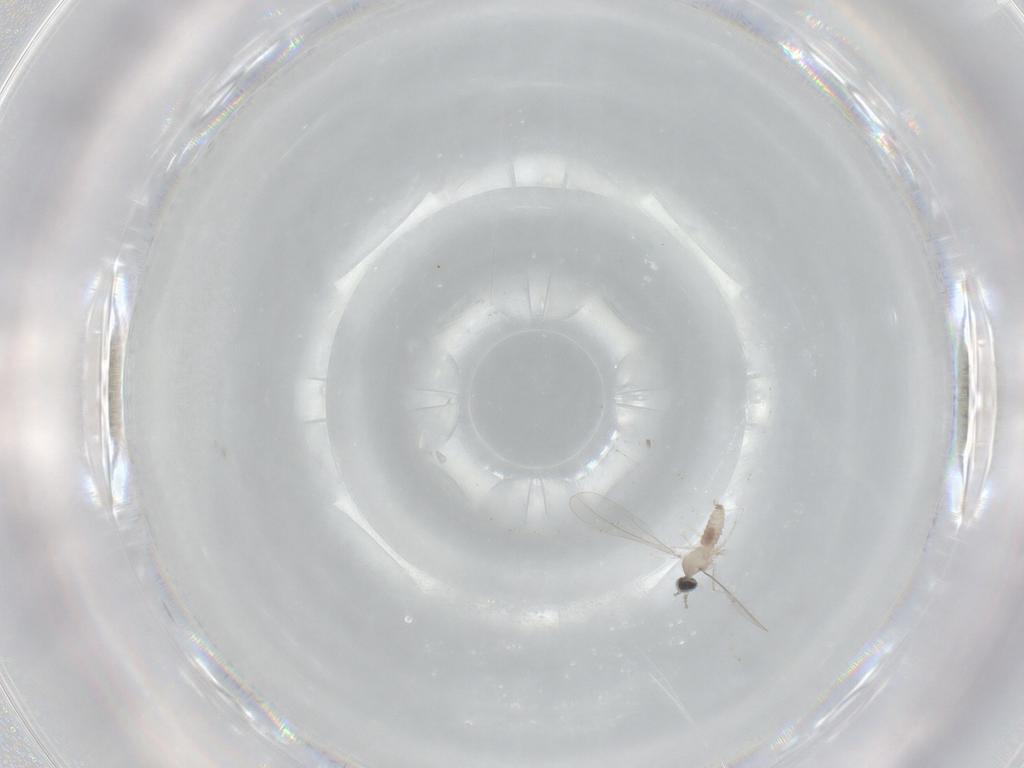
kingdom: Animalia
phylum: Arthropoda
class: Insecta
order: Diptera
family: Cecidomyiidae
